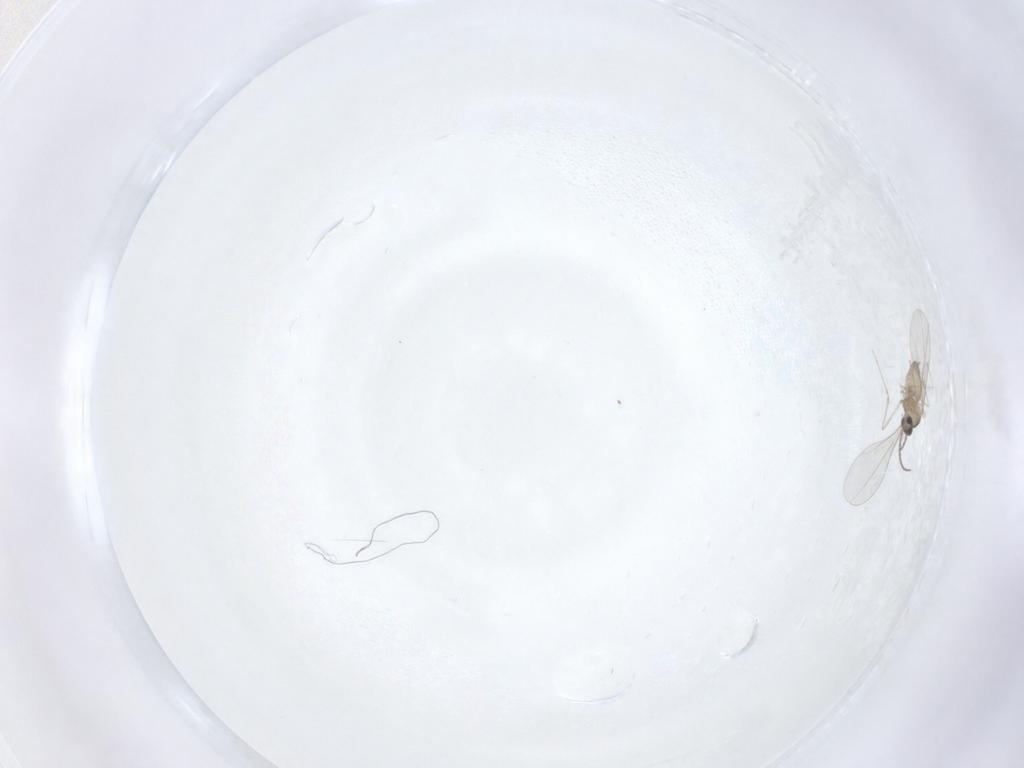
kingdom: Animalia
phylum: Arthropoda
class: Insecta
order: Diptera
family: Cecidomyiidae
